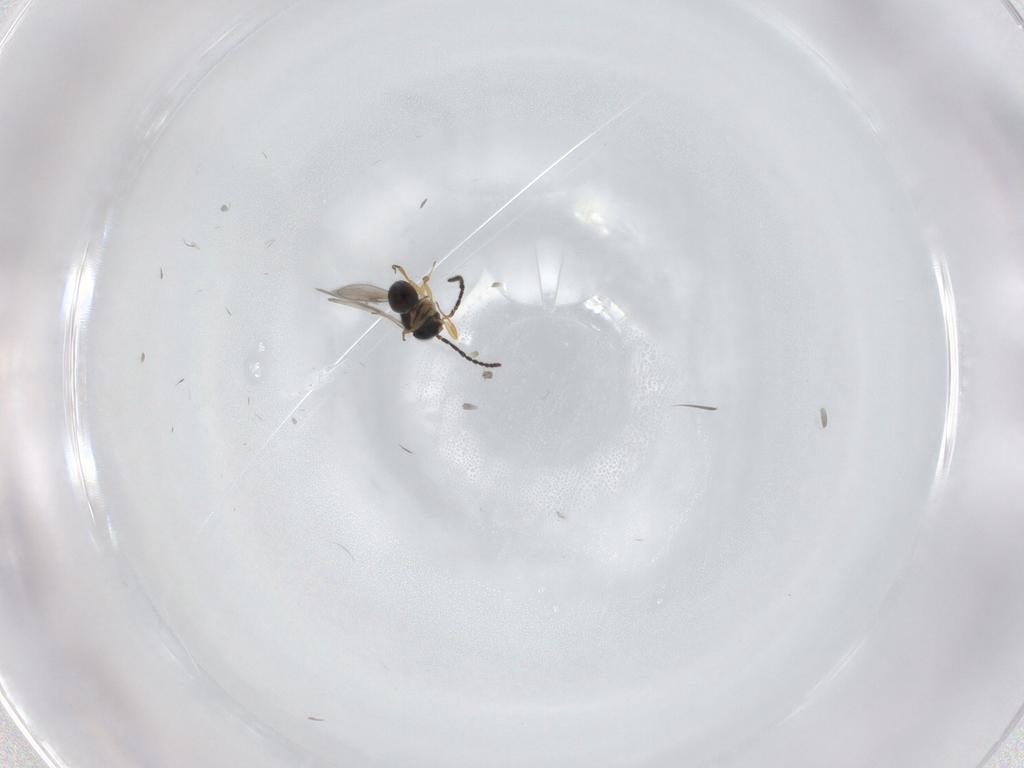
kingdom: Animalia
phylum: Arthropoda
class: Insecta
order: Hymenoptera
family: Scelionidae
